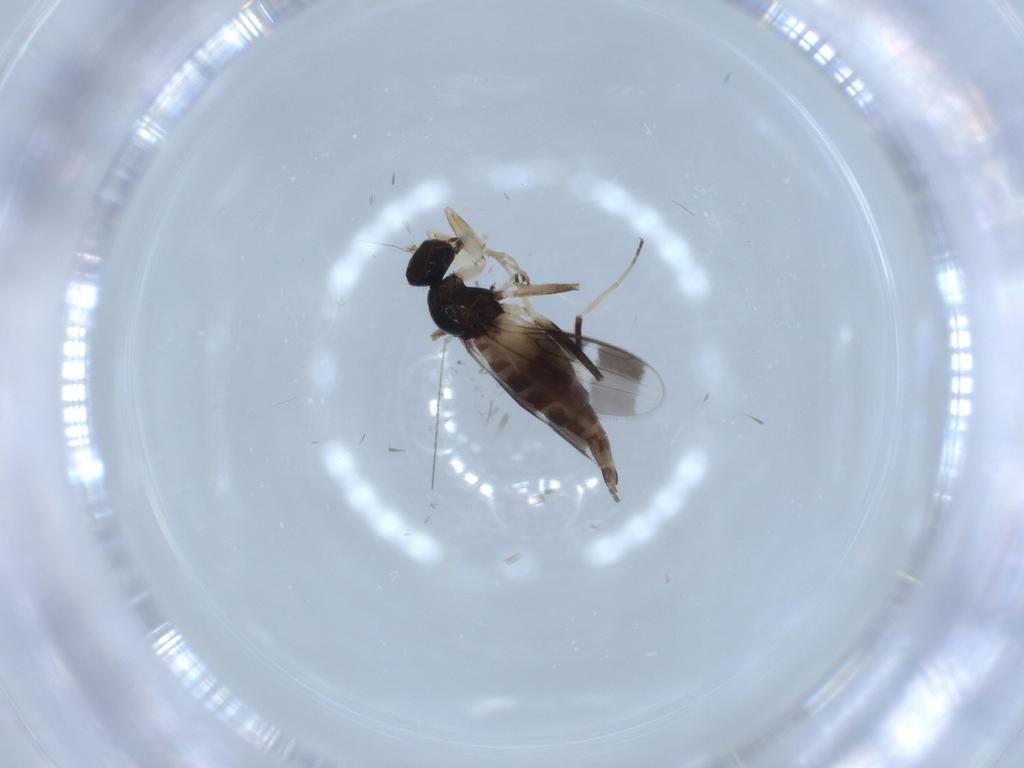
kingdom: Animalia
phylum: Arthropoda
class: Insecta
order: Diptera
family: Hybotidae
